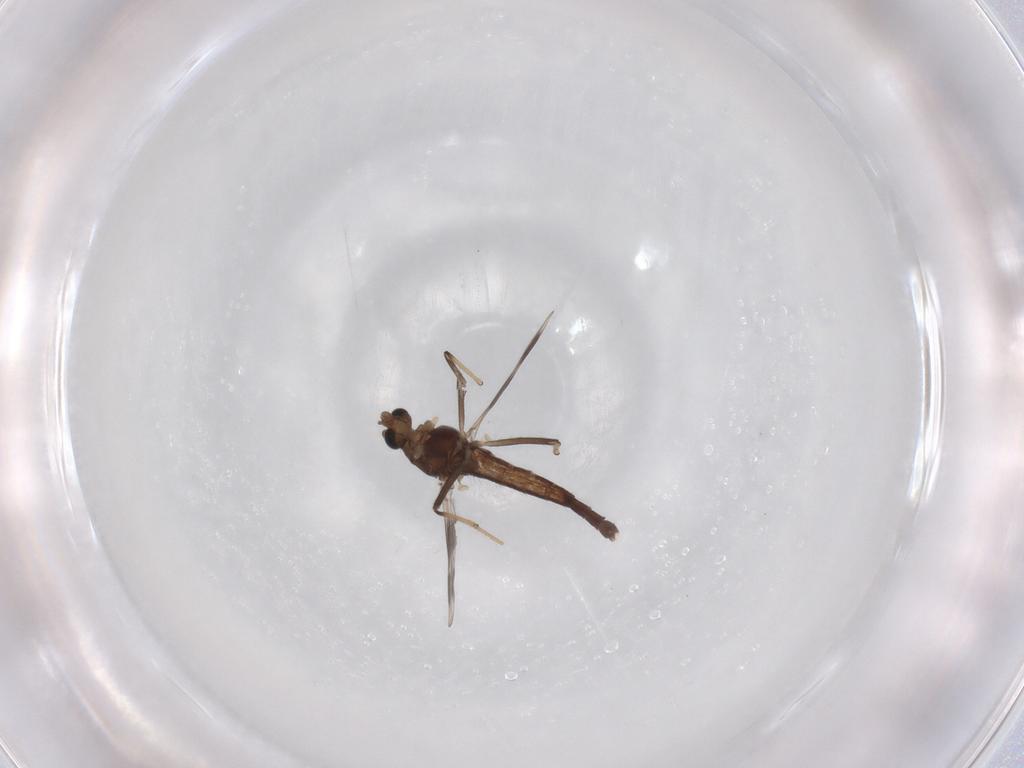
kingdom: Animalia
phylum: Arthropoda
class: Insecta
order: Diptera
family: Chironomidae
